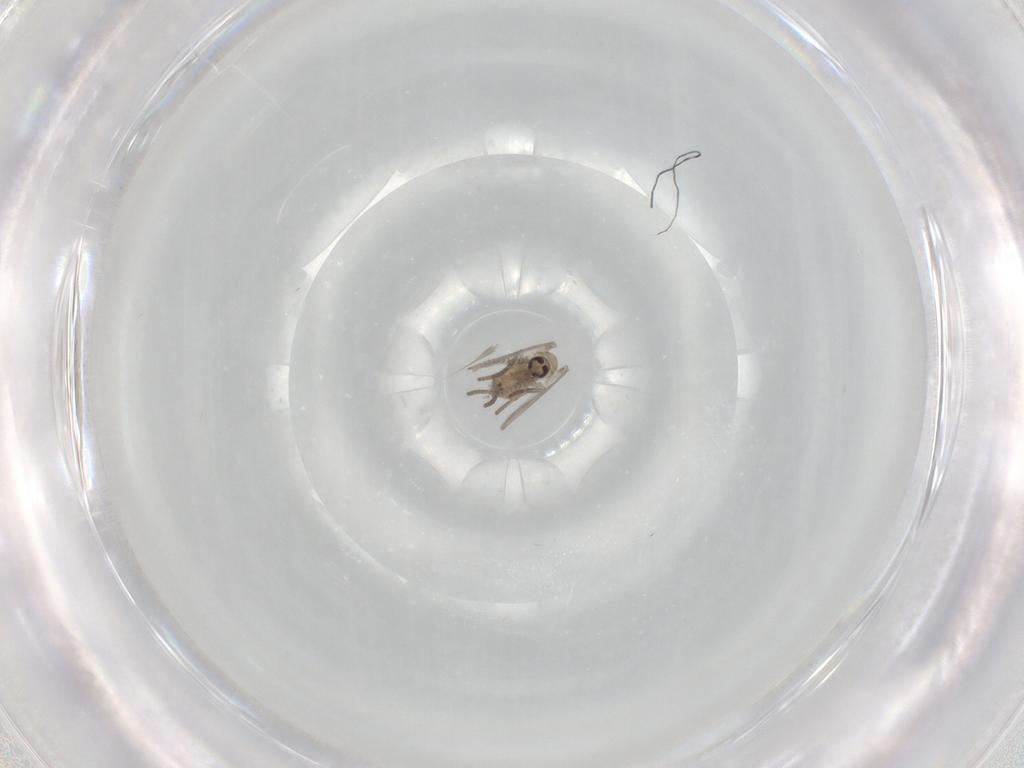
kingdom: Animalia
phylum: Arthropoda
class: Insecta
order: Diptera
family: Psychodidae
